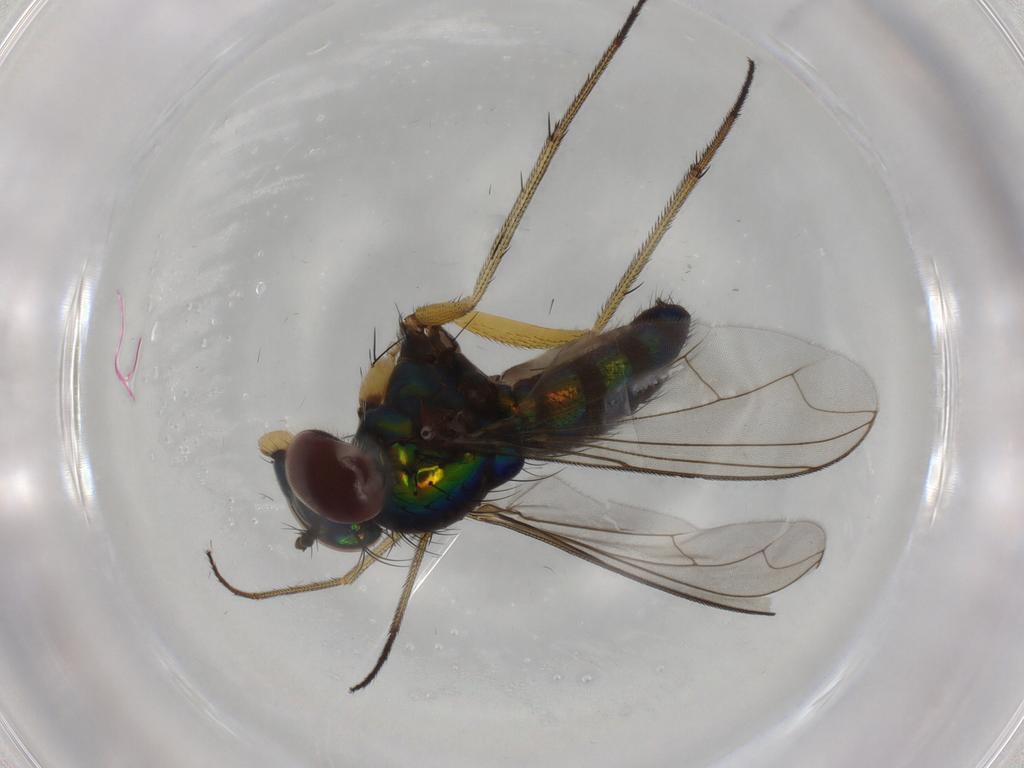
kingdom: Animalia
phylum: Arthropoda
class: Insecta
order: Diptera
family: Dolichopodidae
